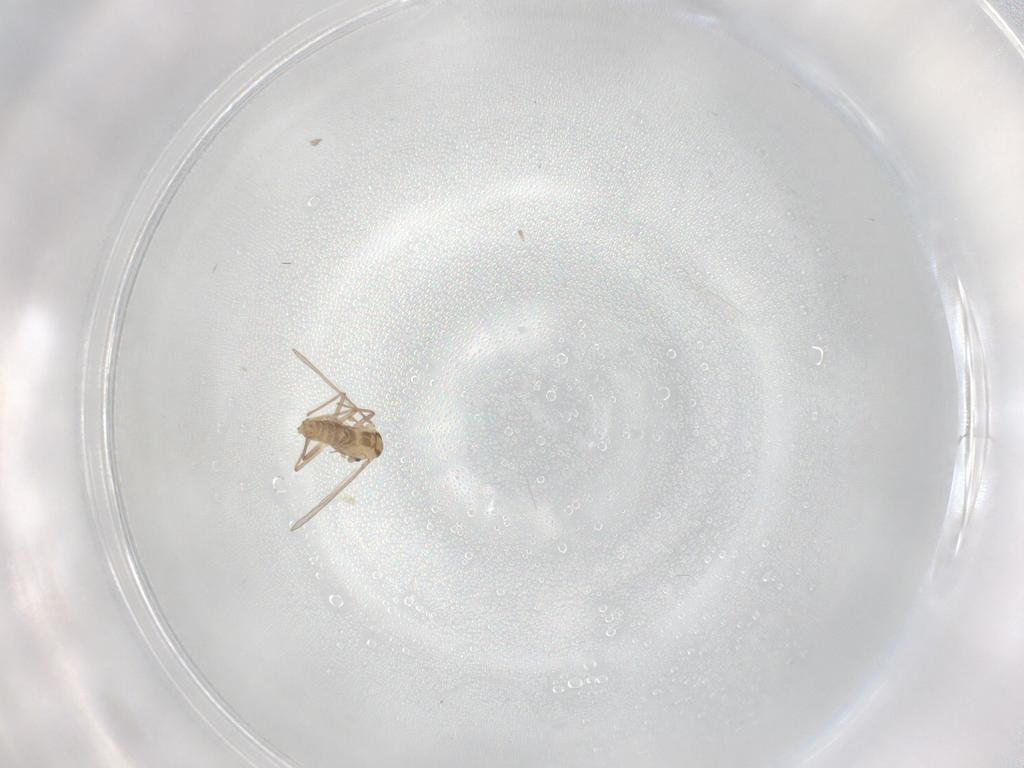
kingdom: Animalia
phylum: Arthropoda
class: Insecta
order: Diptera
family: Chironomidae
